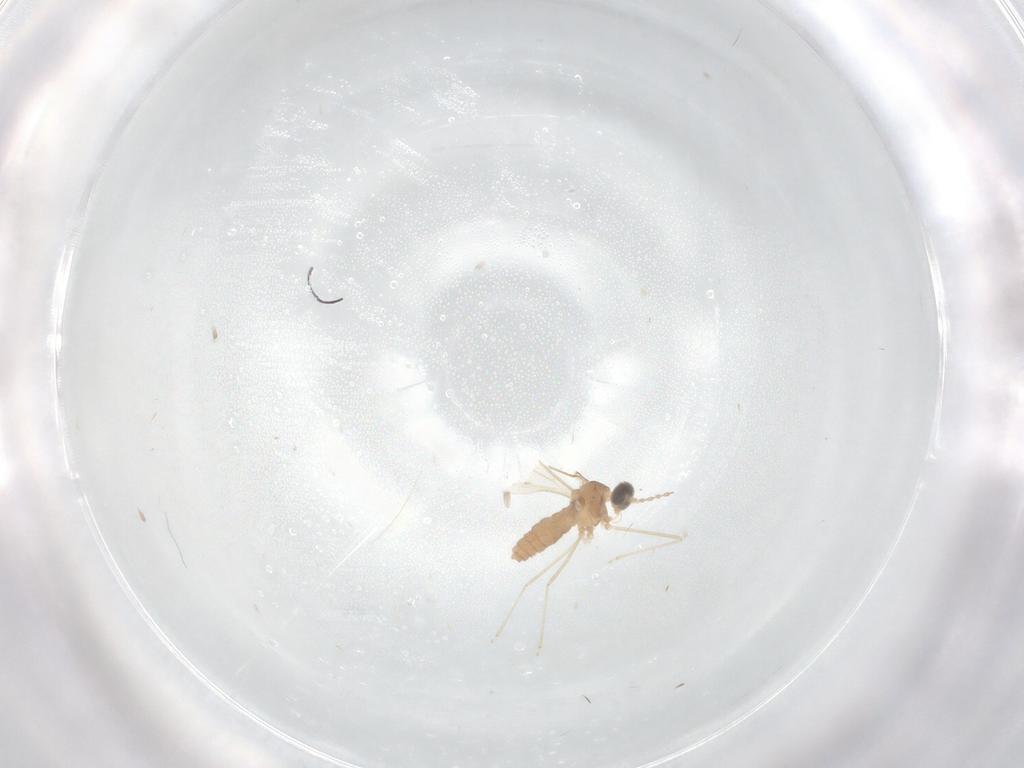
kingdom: Animalia
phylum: Arthropoda
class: Insecta
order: Diptera
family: Cecidomyiidae
